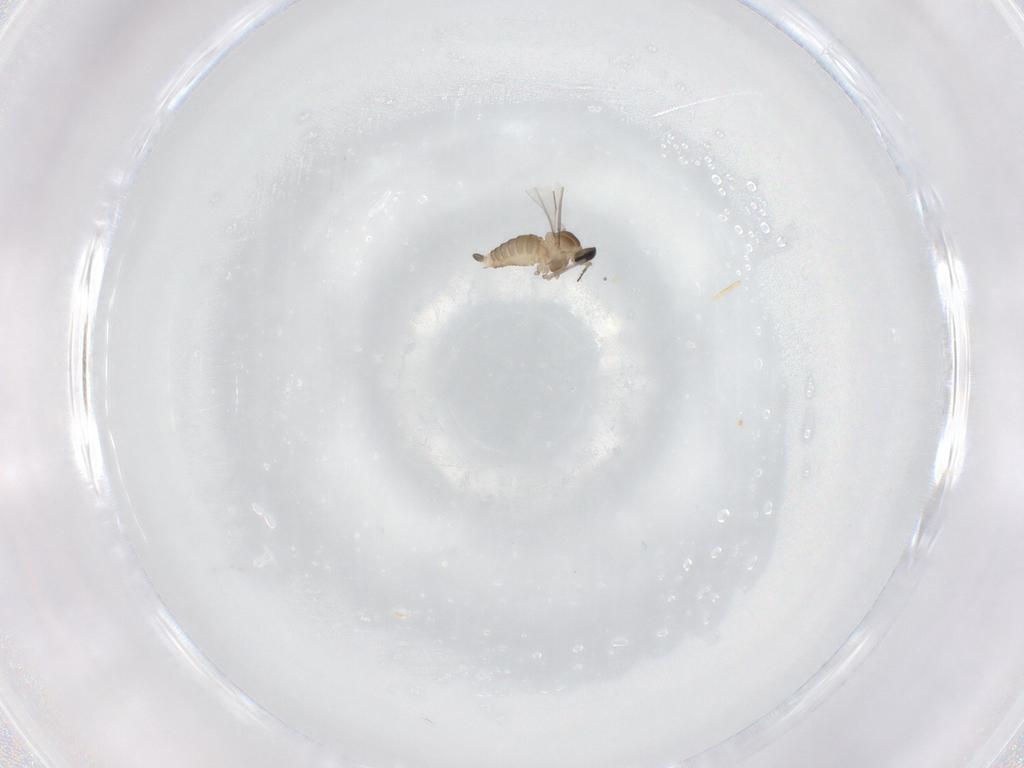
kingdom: Animalia
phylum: Arthropoda
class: Insecta
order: Diptera
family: Cecidomyiidae
